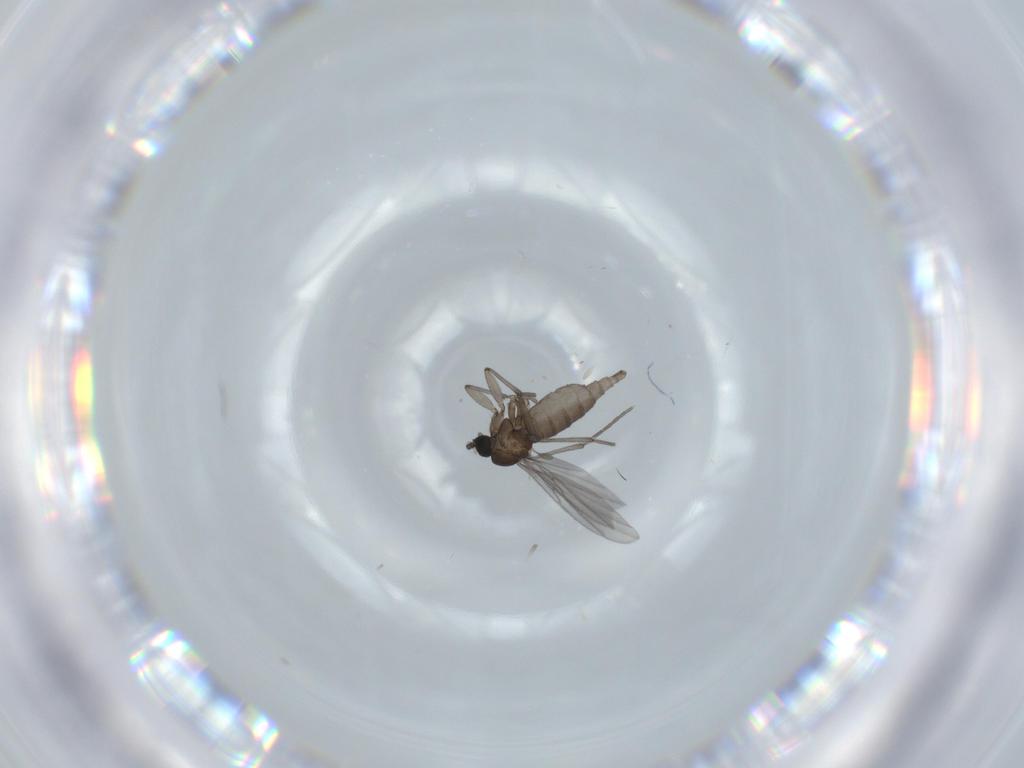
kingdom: Animalia
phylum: Arthropoda
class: Insecta
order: Diptera
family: Sciaridae
